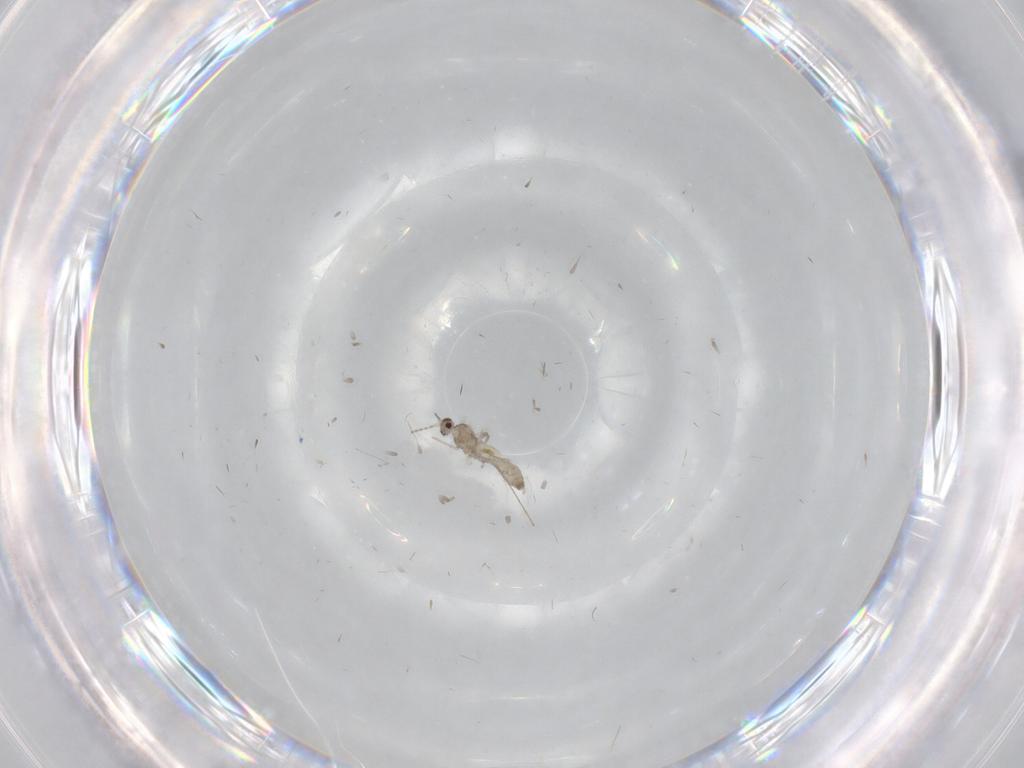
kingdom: Animalia
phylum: Arthropoda
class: Insecta
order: Diptera
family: Cecidomyiidae
